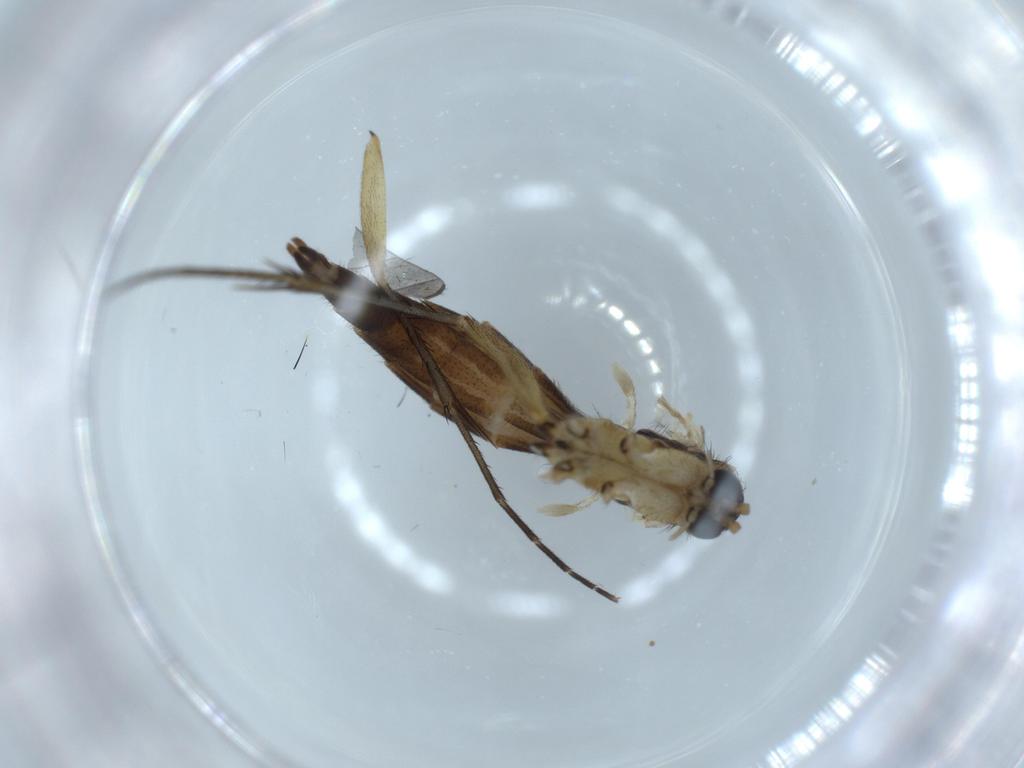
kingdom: Animalia
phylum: Arthropoda
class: Insecta
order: Diptera
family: Mycetophilidae
